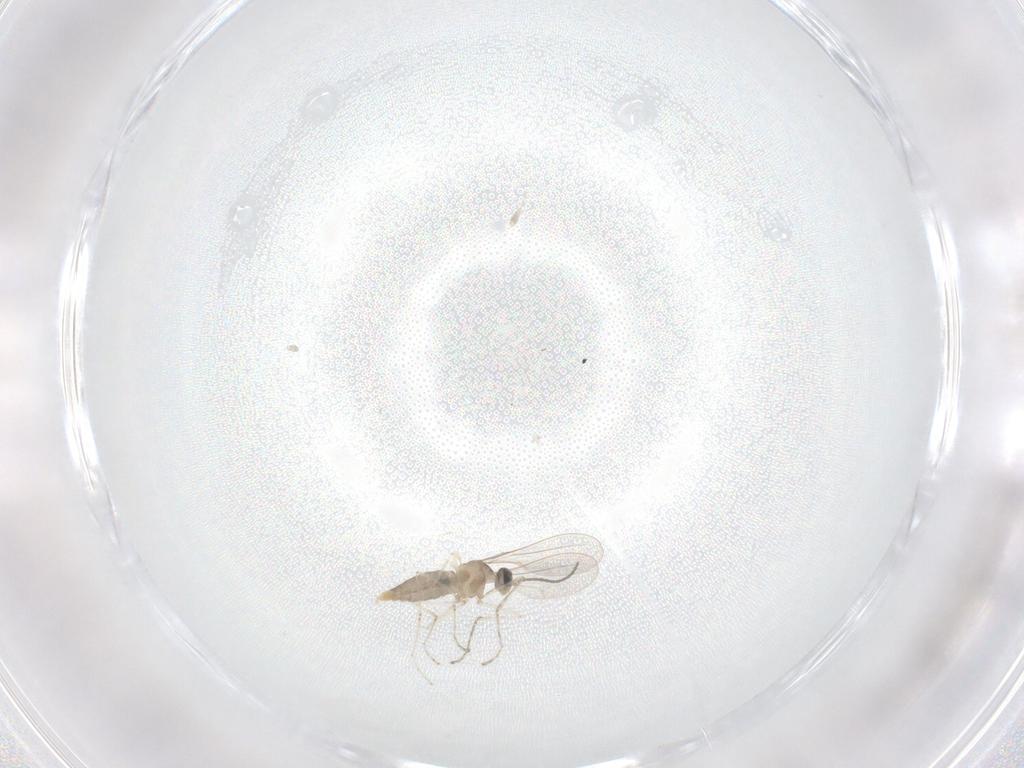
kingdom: Animalia
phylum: Arthropoda
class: Insecta
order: Diptera
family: Cecidomyiidae
